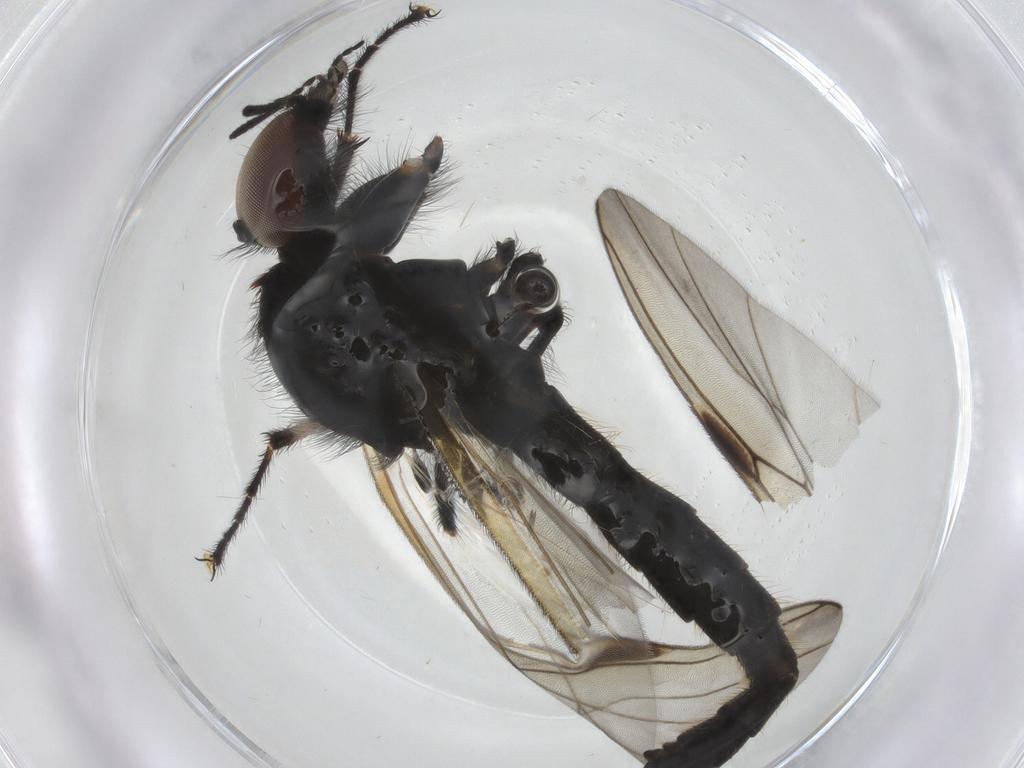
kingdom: Animalia
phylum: Arthropoda
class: Insecta
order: Diptera
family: Bibionidae
